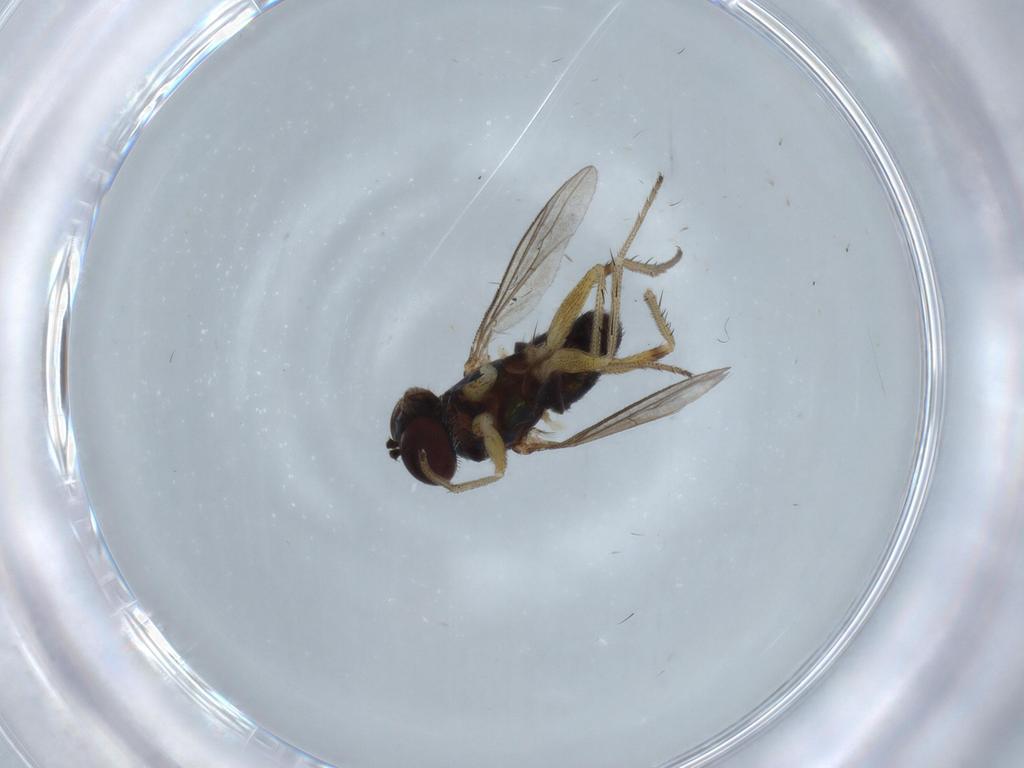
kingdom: Animalia
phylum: Arthropoda
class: Insecta
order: Diptera
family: Dolichopodidae
